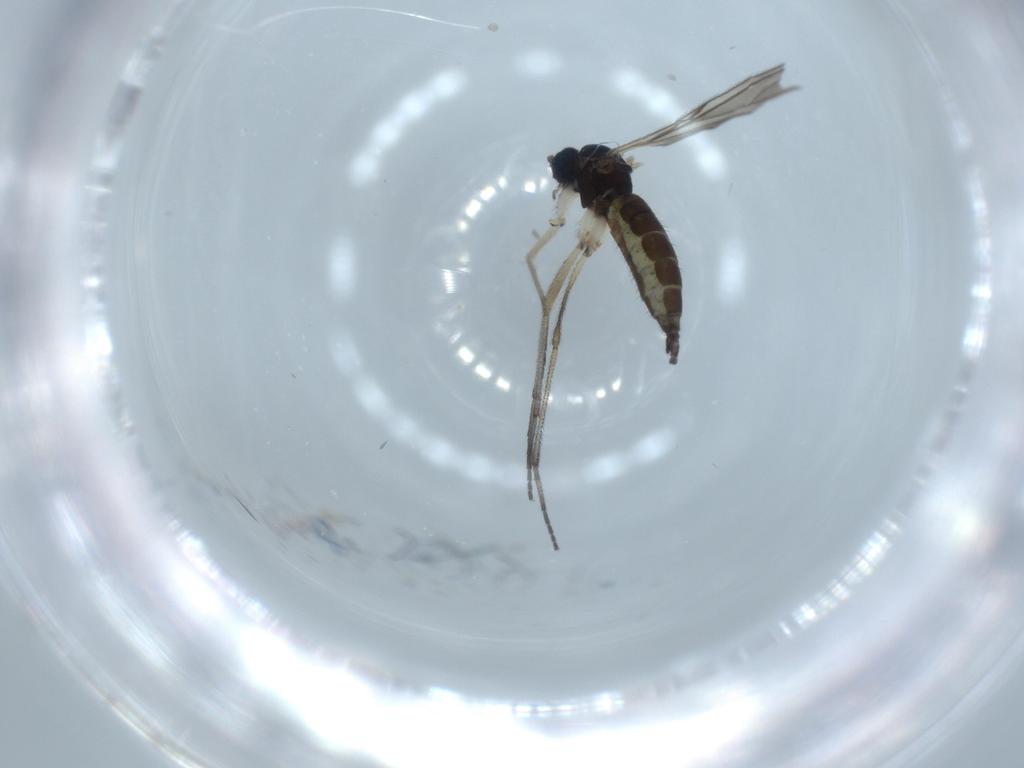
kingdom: Animalia
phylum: Arthropoda
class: Insecta
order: Diptera
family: Sciaridae
